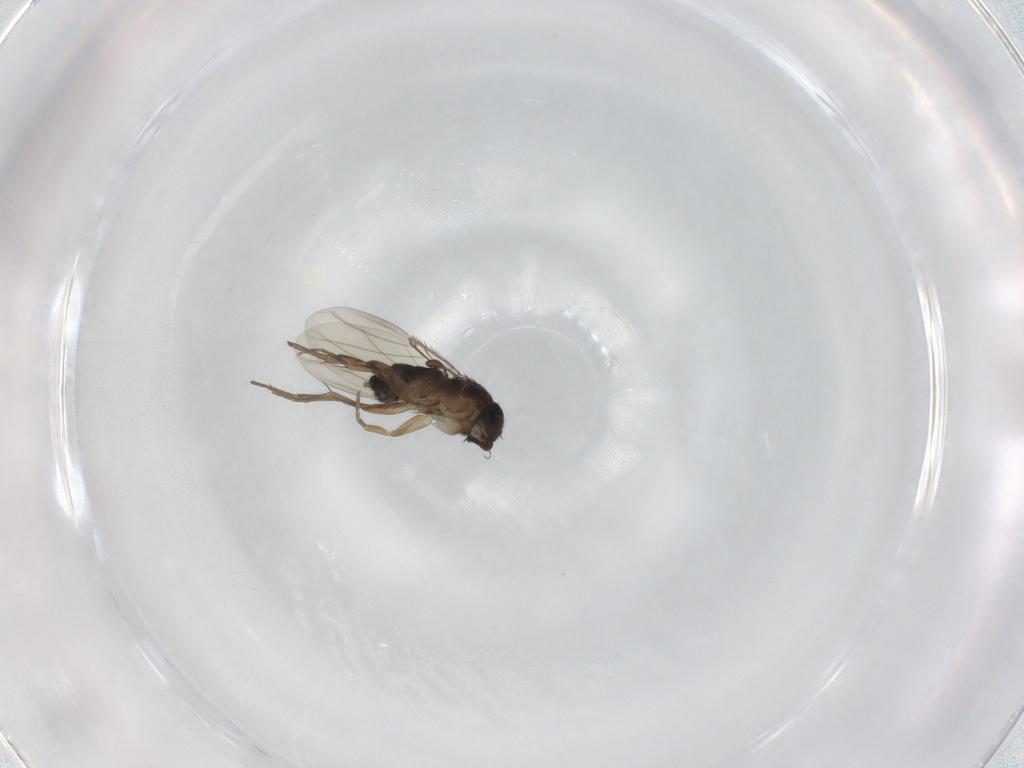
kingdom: Animalia
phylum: Arthropoda
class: Insecta
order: Diptera
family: Phoridae
